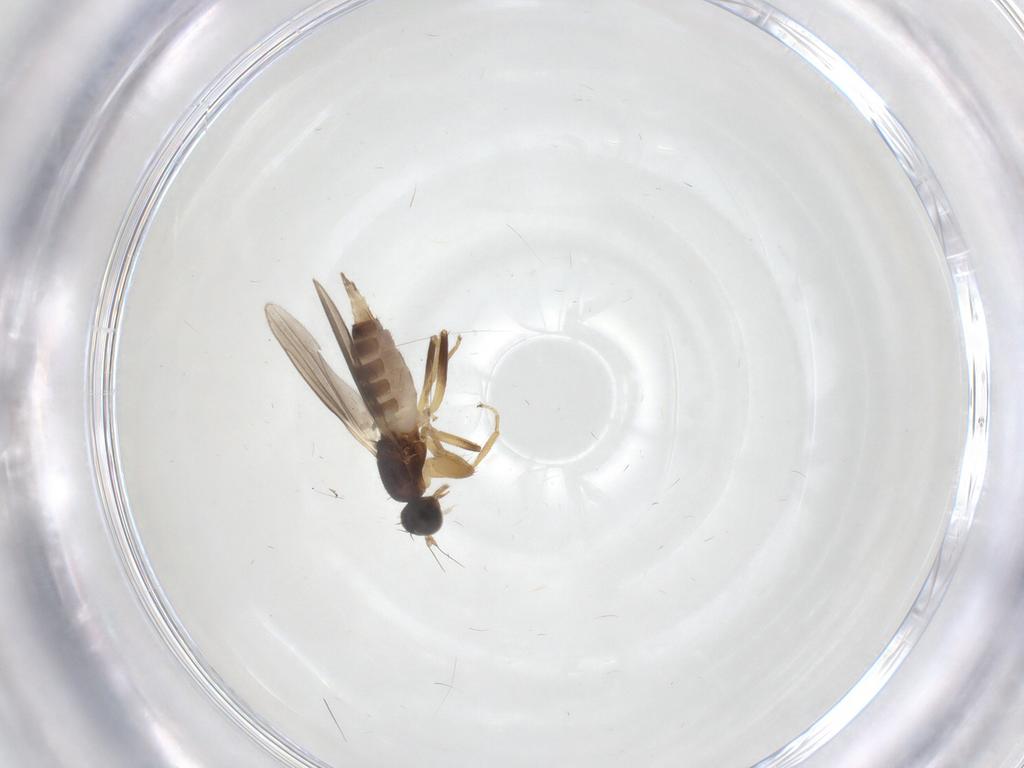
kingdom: Animalia
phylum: Arthropoda
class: Insecta
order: Diptera
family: Hybotidae
